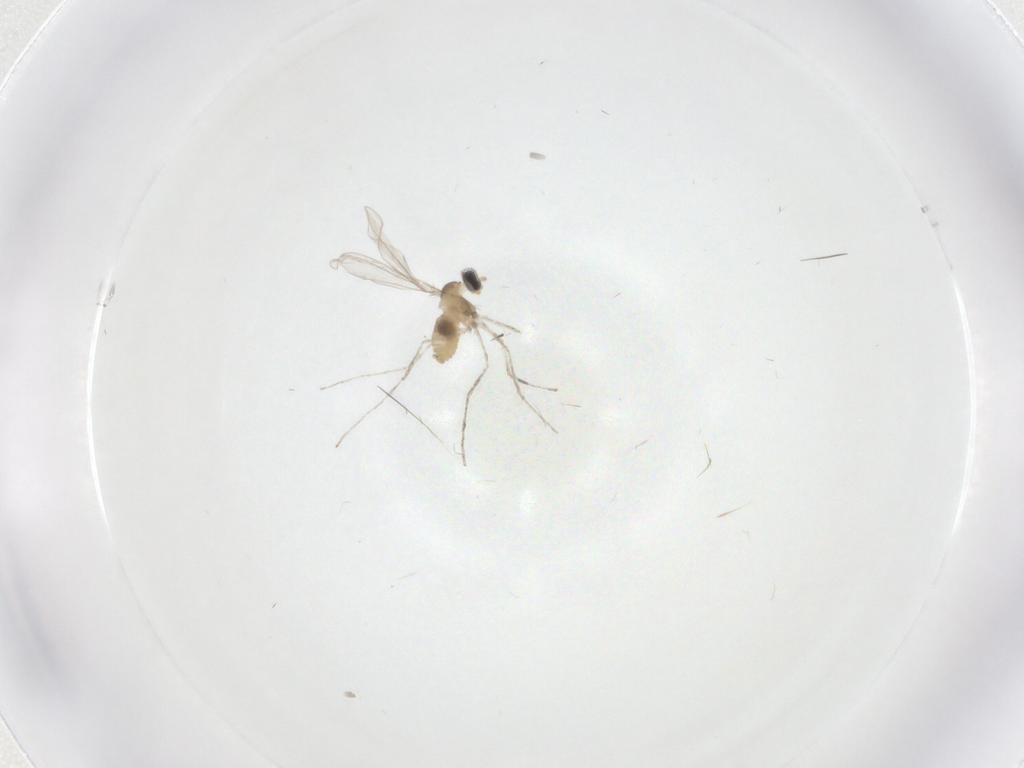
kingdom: Animalia
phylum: Arthropoda
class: Insecta
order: Diptera
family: Cecidomyiidae
